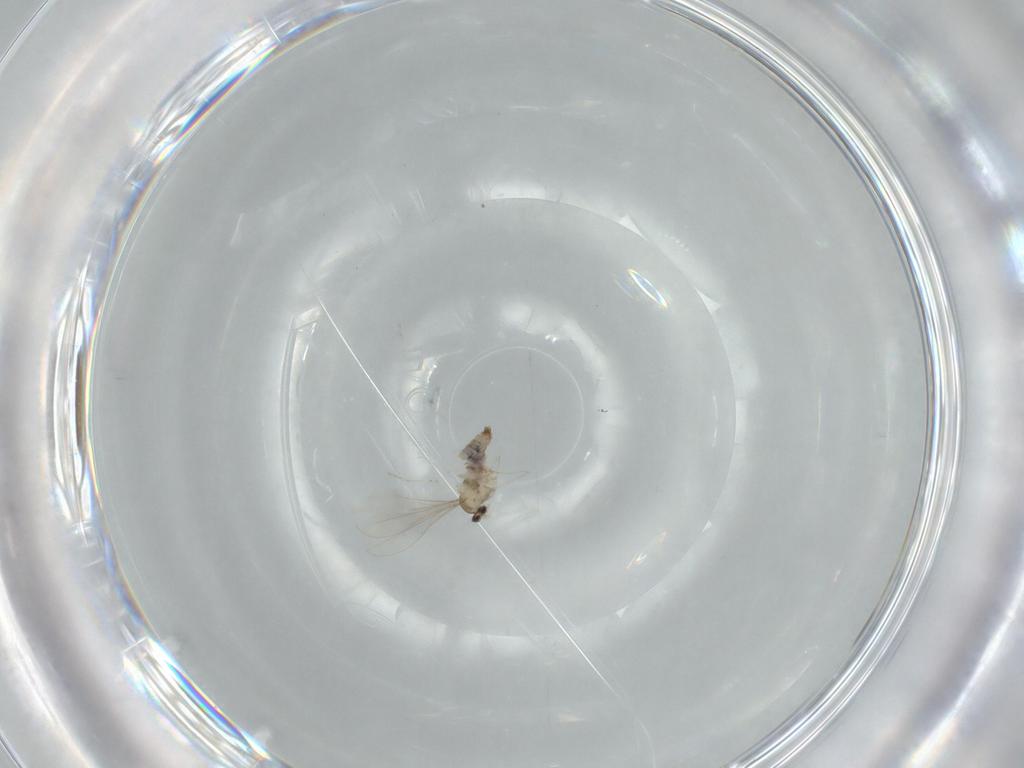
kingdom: Animalia
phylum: Arthropoda
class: Insecta
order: Diptera
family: Cecidomyiidae
